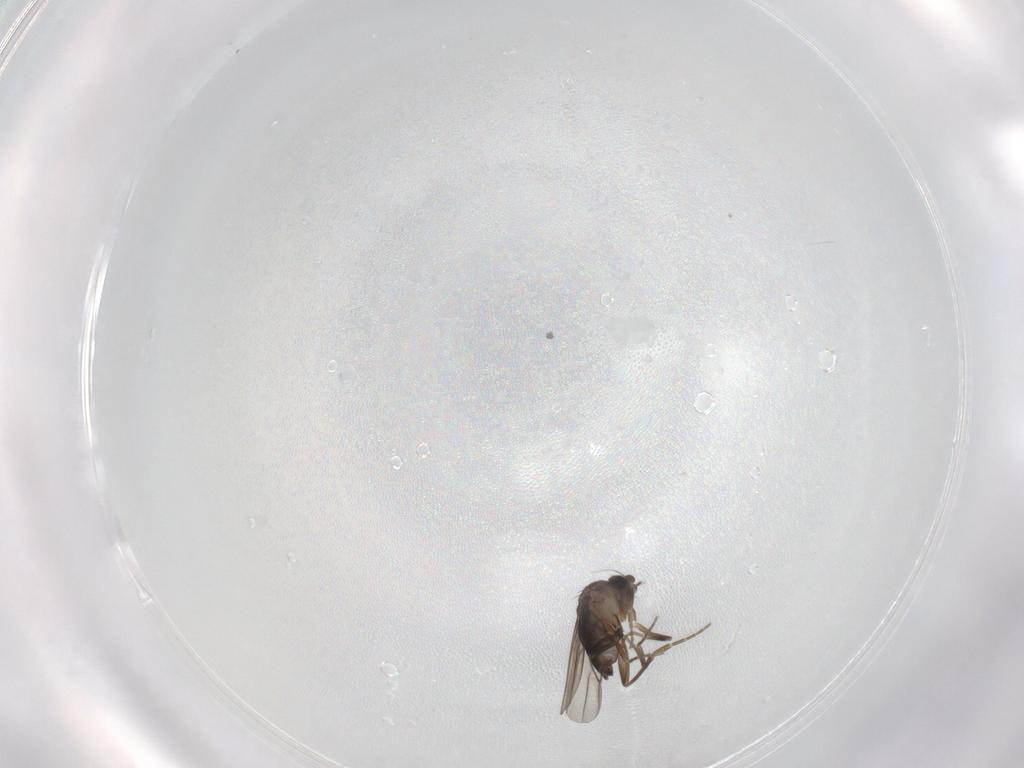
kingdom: Animalia
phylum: Arthropoda
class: Insecta
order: Diptera
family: Phoridae
